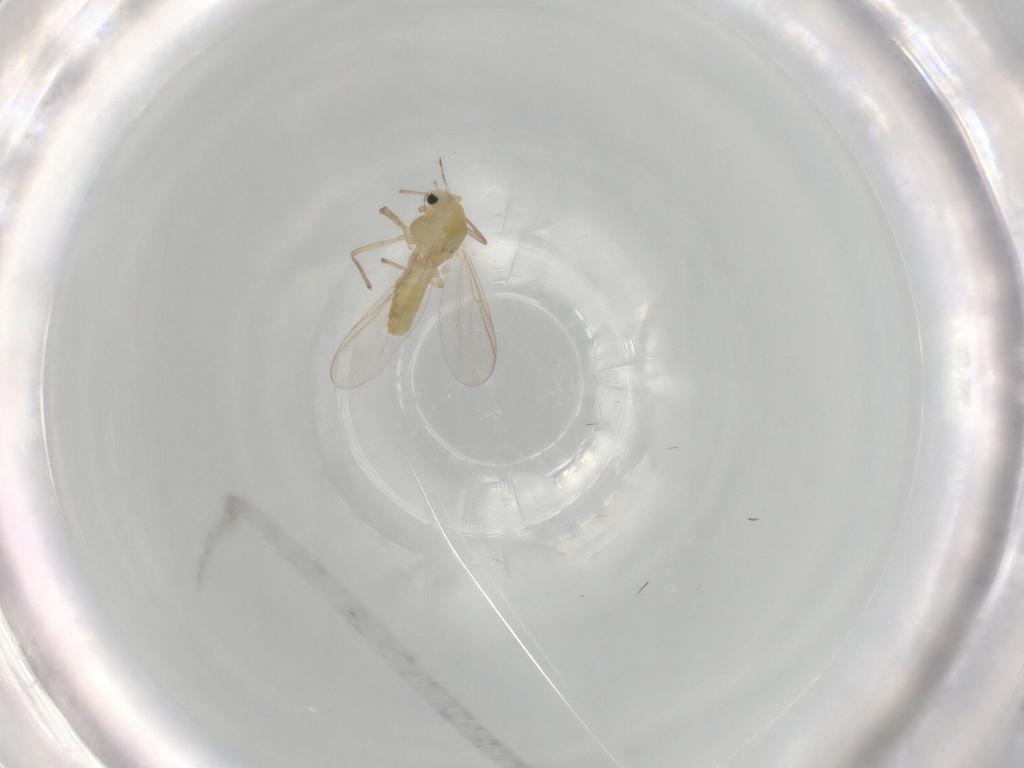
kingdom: Animalia
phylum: Arthropoda
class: Insecta
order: Diptera
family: Chironomidae
